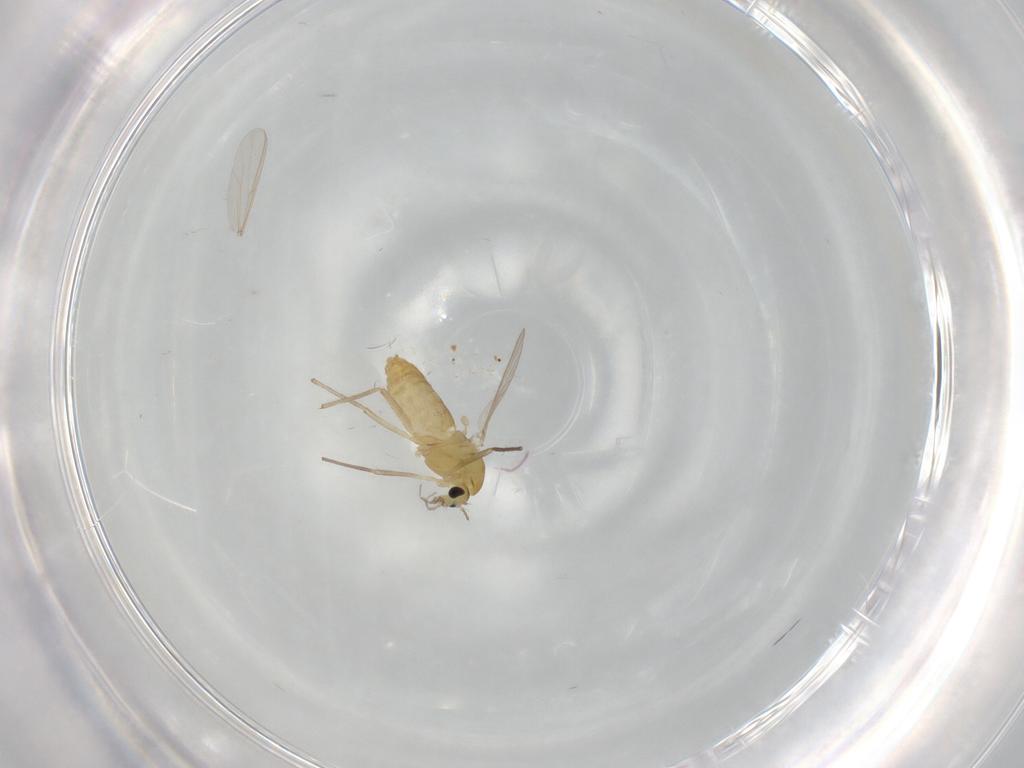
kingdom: Animalia
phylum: Arthropoda
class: Insecta
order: Diptera
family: Chironomidae
